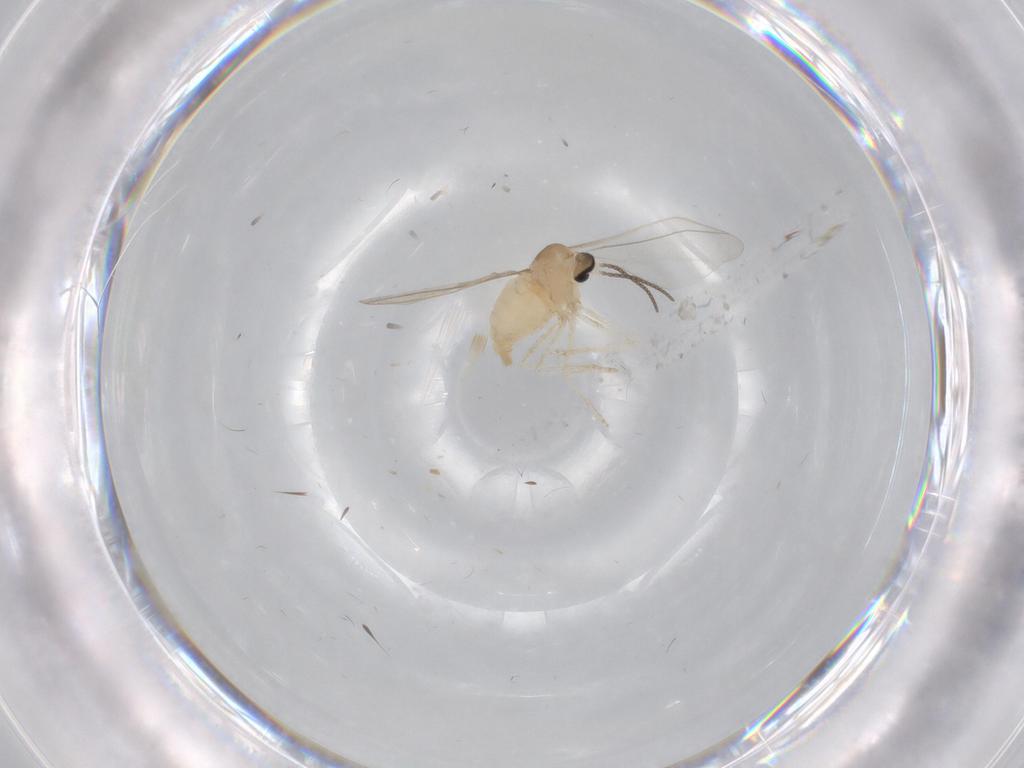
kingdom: Animalia
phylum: Arthropoda
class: Insecta
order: Diptera
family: Cecidomyiidae
